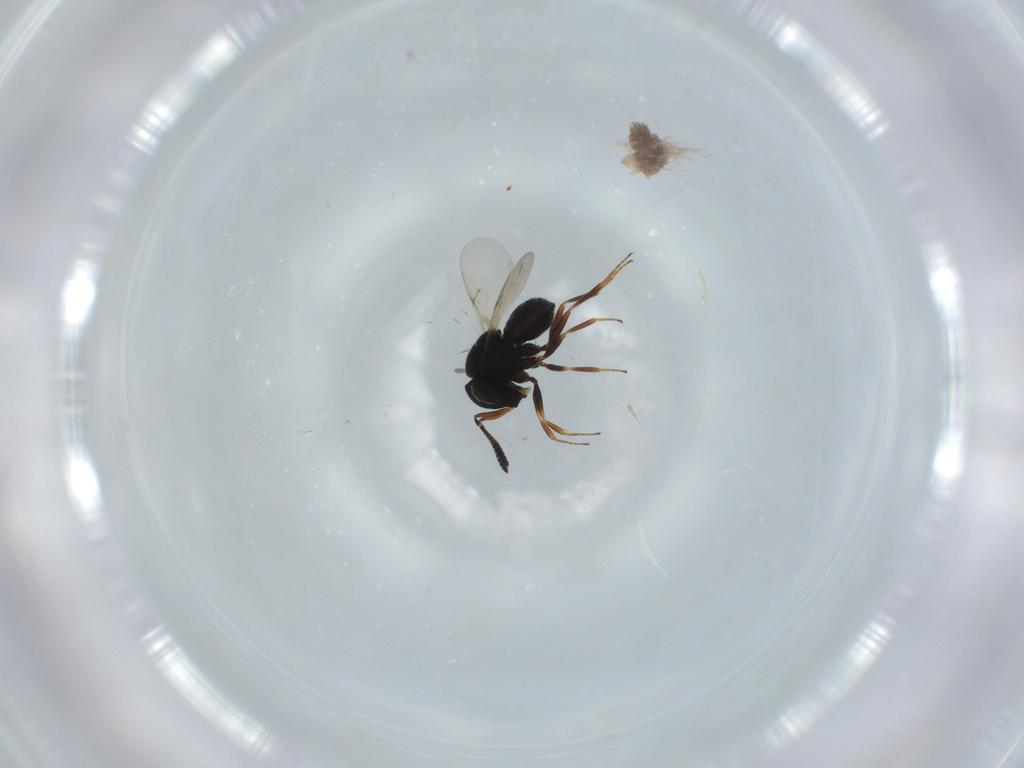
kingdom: Animalia
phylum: Arthropoda
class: Insecta
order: Hymenoptera
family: Scelionidae
